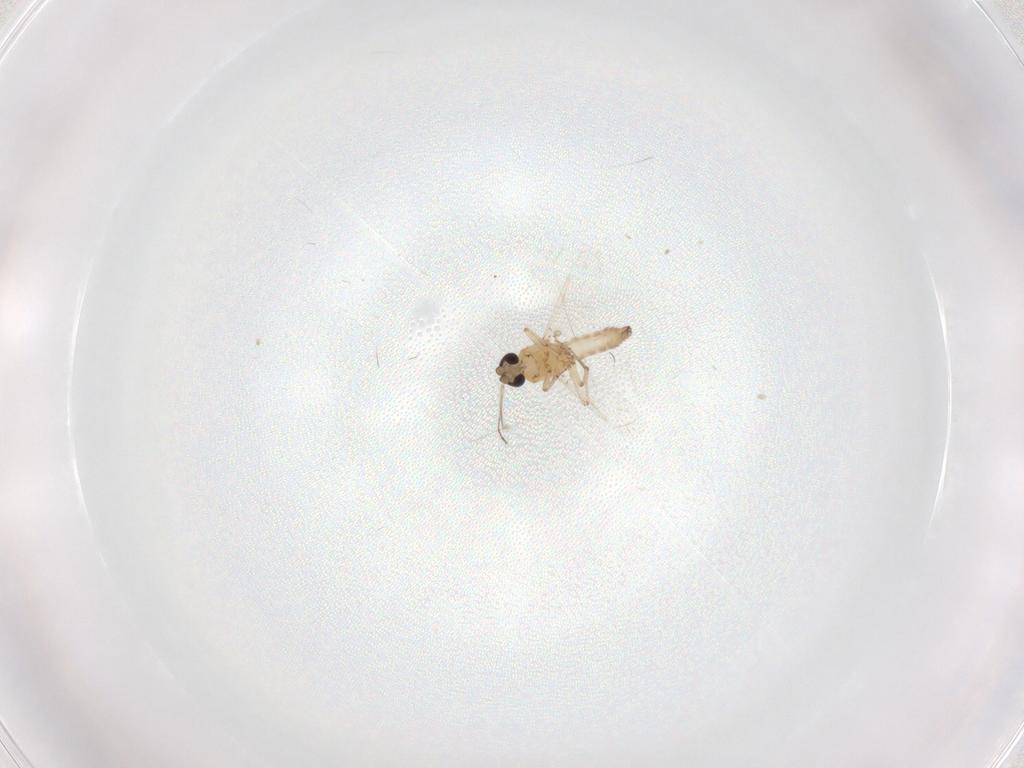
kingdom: Animalia
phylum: Arthropoda
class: Insecta
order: Diptera
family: Ceratopogonidae
